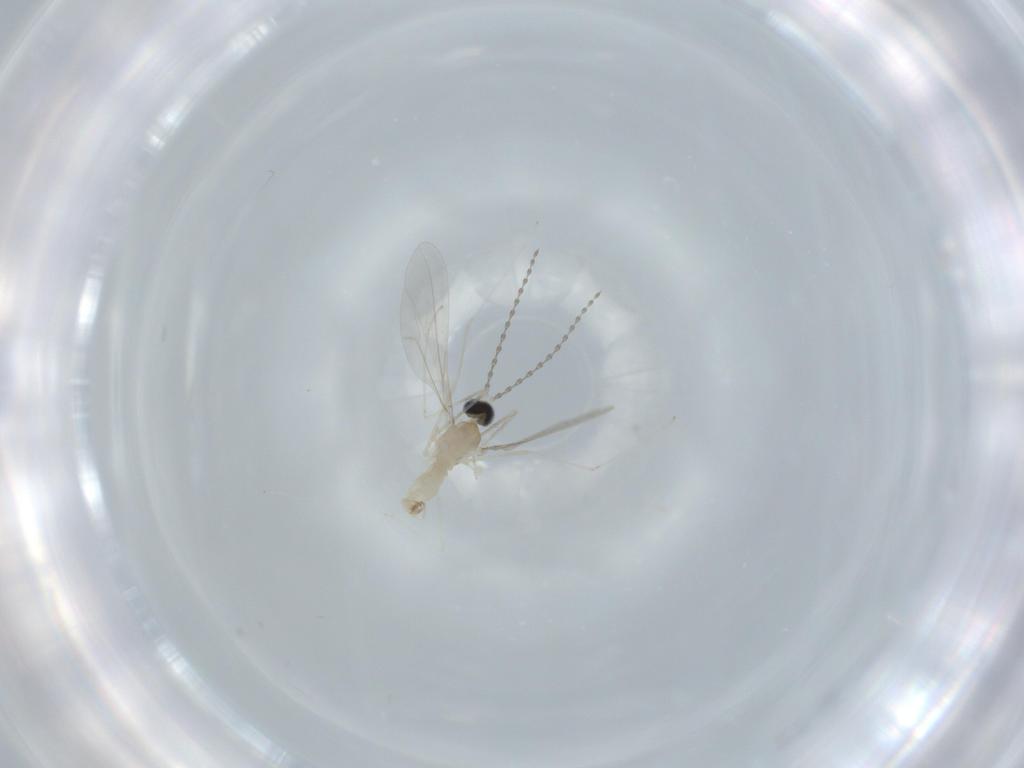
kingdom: Animalia
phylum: Arthropoda
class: Insecta
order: Diptera
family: Cecidomyiidae
